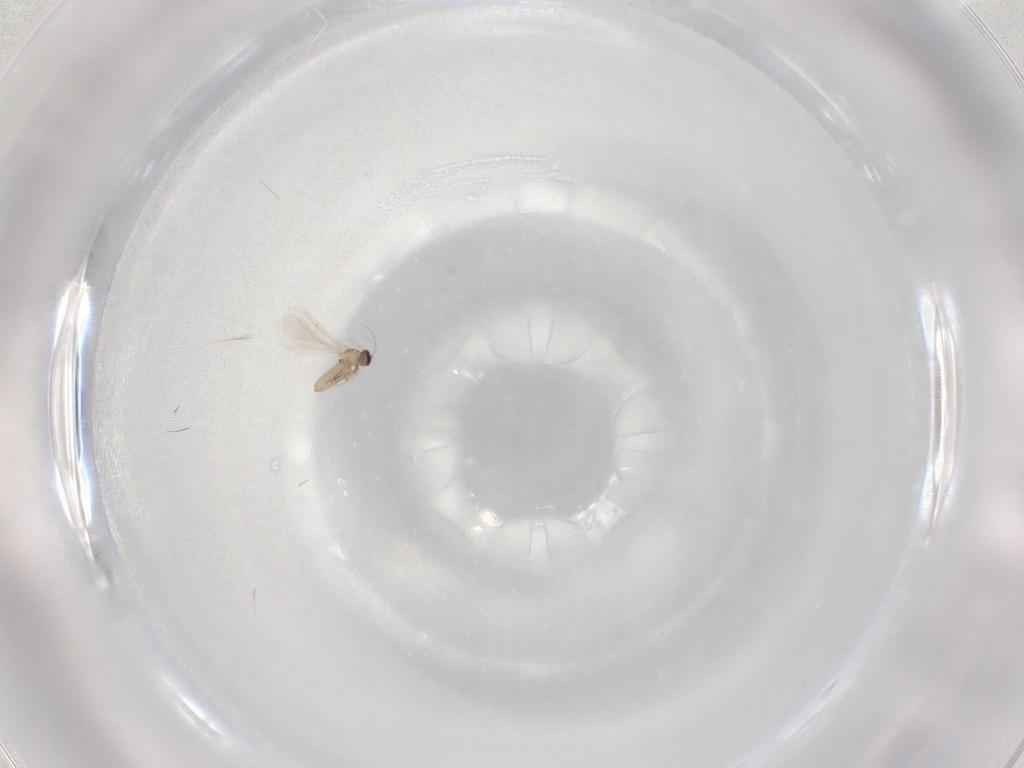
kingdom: Animalia
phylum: Arthropoda
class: Insecta
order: Diptera
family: Cecidomyiidae
